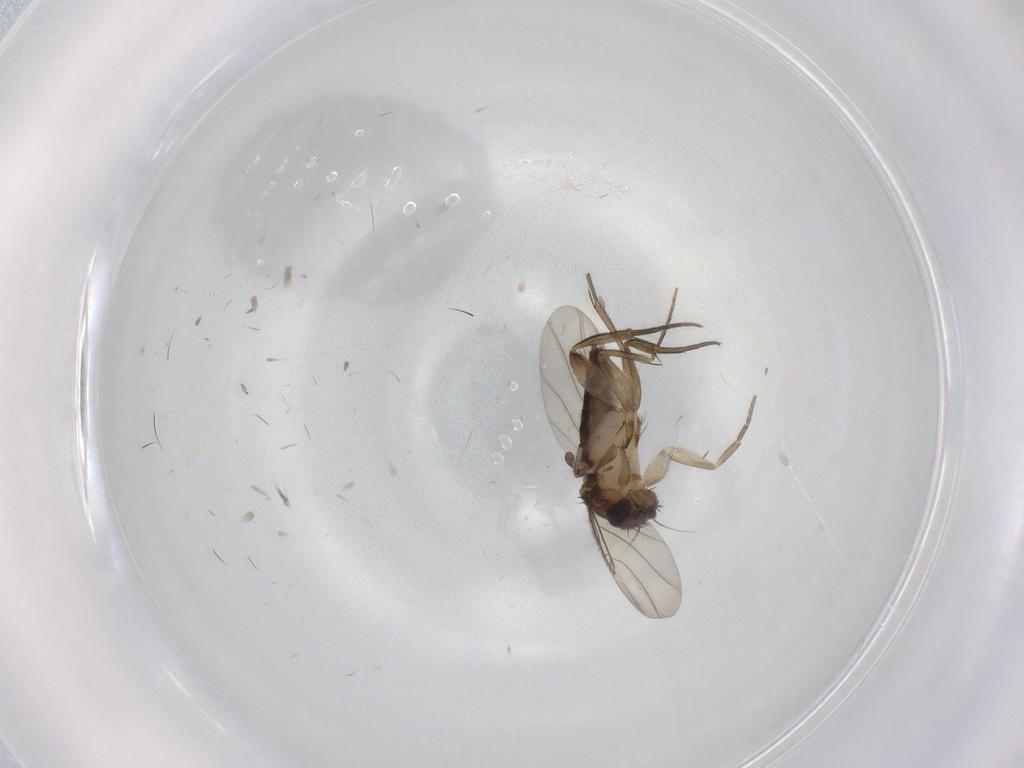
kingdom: Animalia
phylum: Arthropoda
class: Insecta
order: Diptera
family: Phoridae
